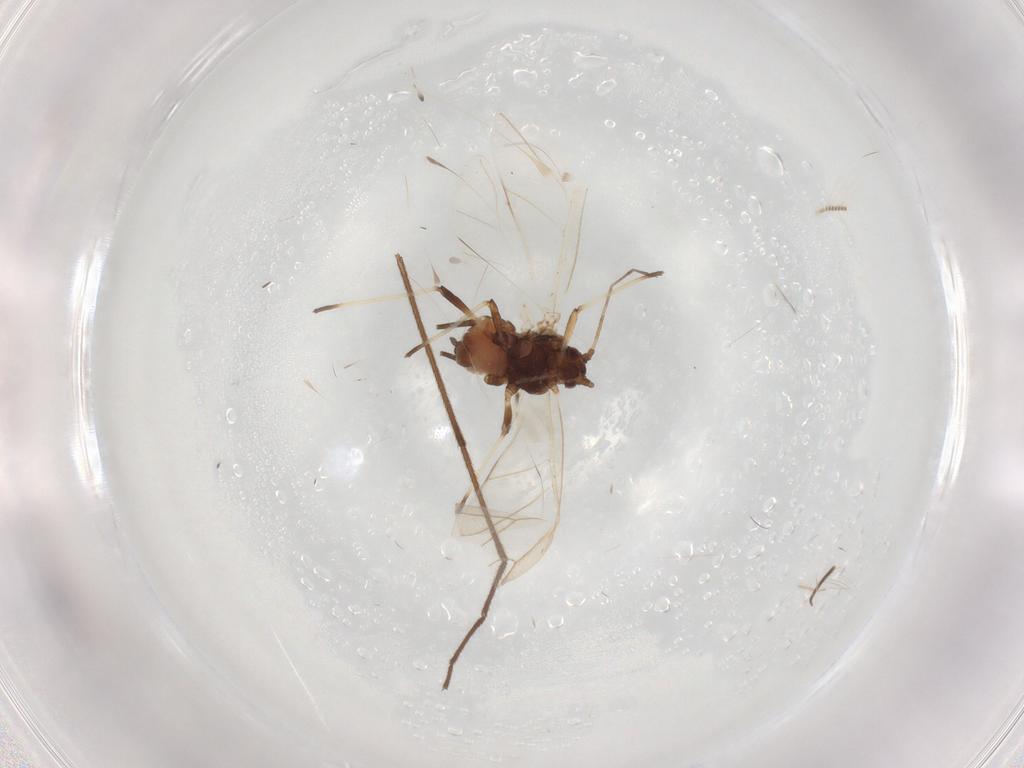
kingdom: Animalia
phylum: Arthropoda
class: Insecta
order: Hemiptera
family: Aphididae
